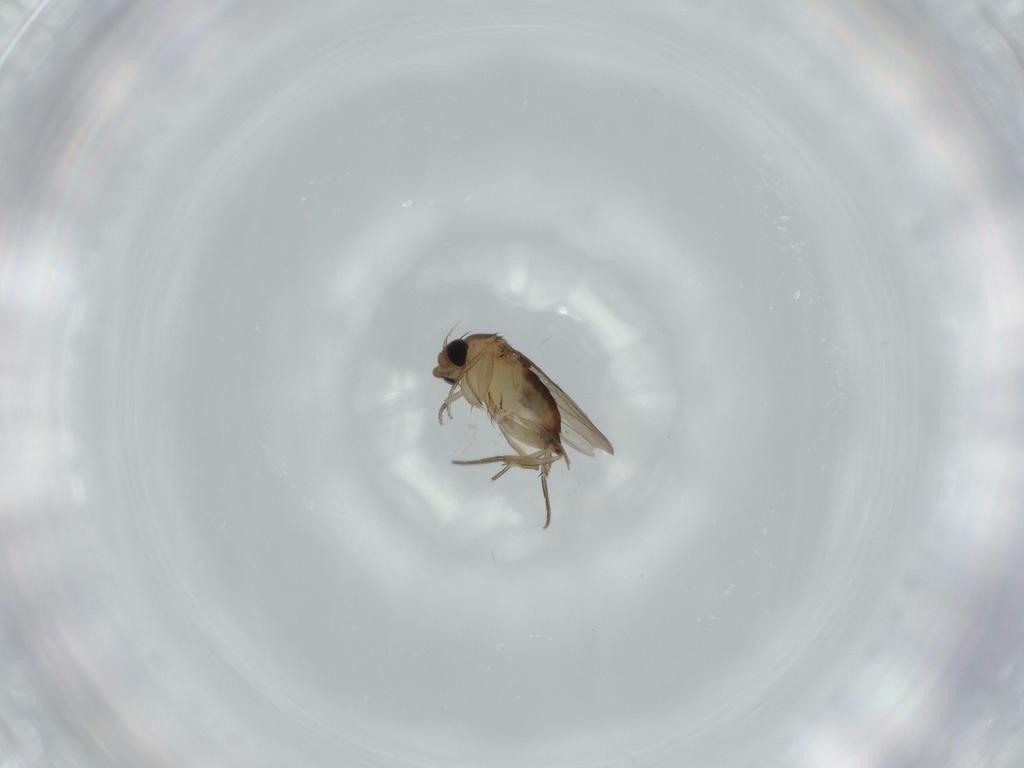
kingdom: Animalia
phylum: Arthropoda
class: Insecta
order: Diptera
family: Phoridae
